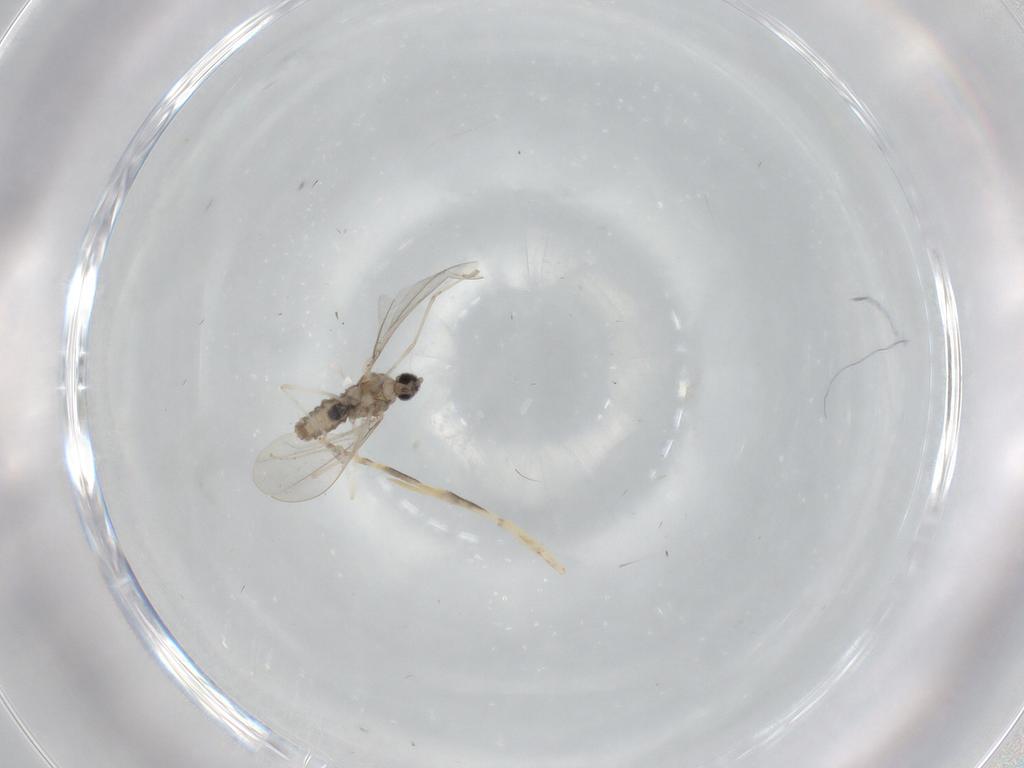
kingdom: Animalia
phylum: Arthropoda
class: Insecta
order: Diptera
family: Cecidomyiidae
